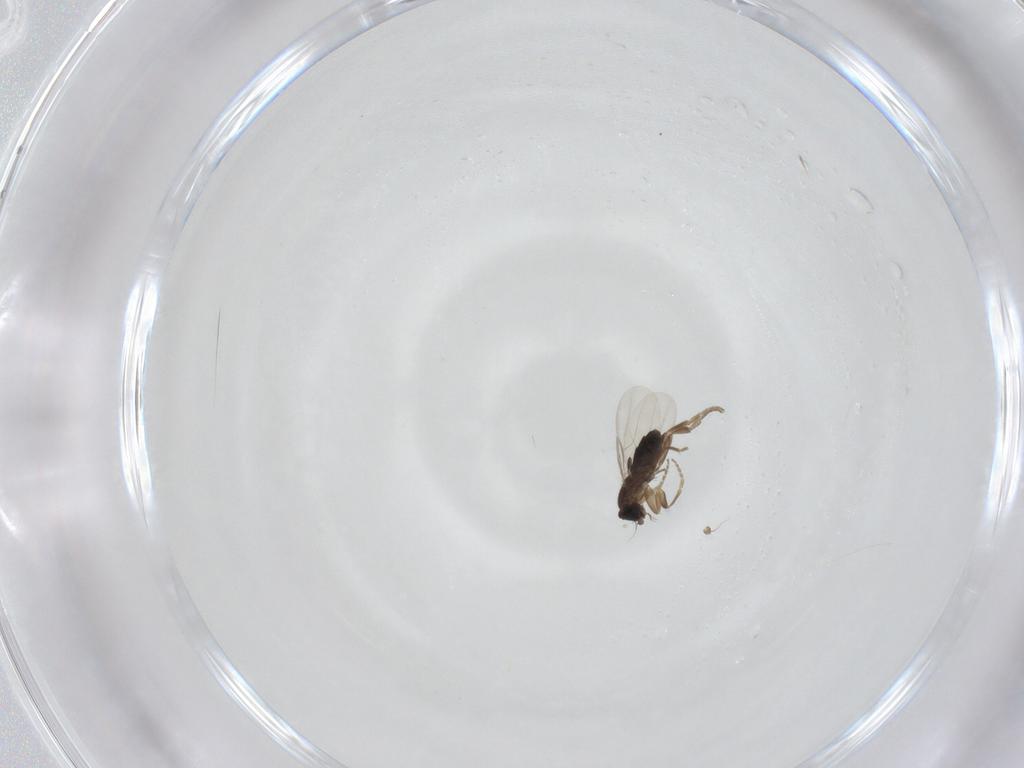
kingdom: Animalia
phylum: Arthropoda
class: Insecta
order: Diptera
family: Phoridae
